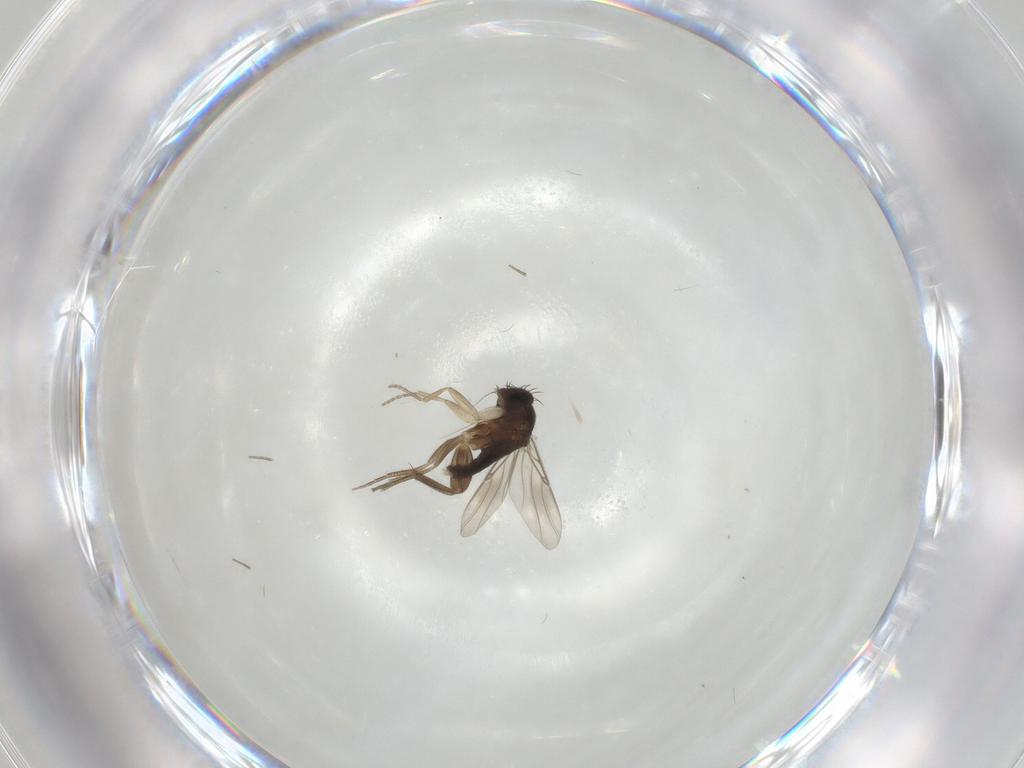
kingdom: Animalia
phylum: Arthropoda
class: Insecta
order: Diptera
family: Phoridae
